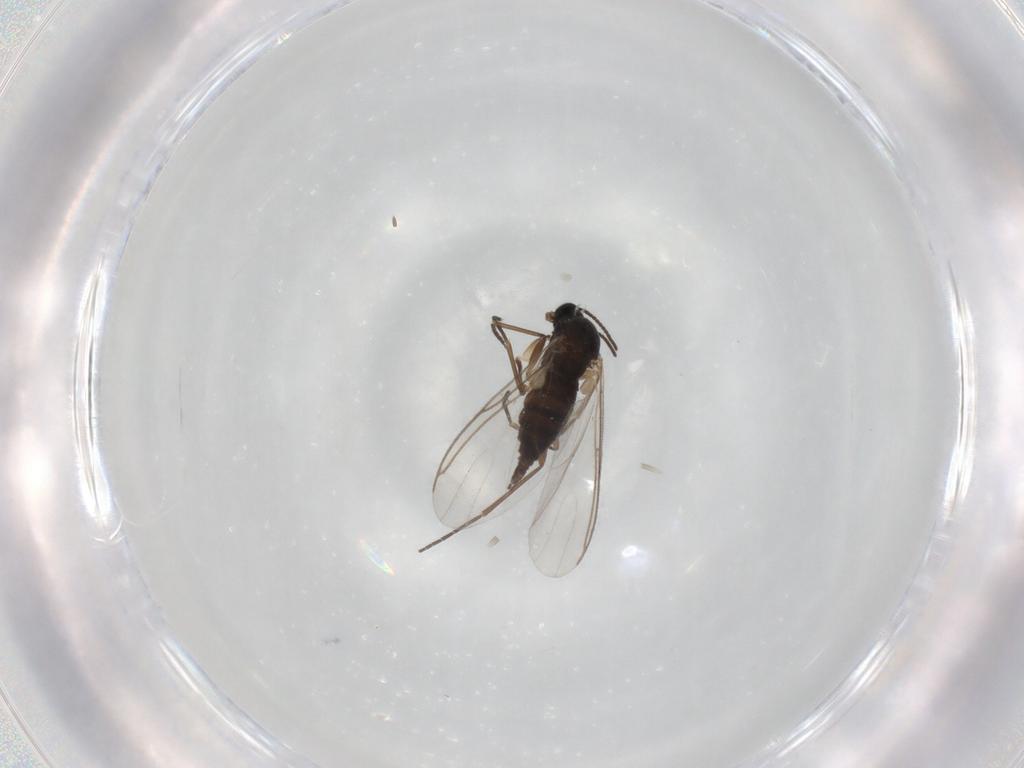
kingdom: Animalia
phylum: Arthropoda
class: Insecta
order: Diptera
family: Sciaridae
